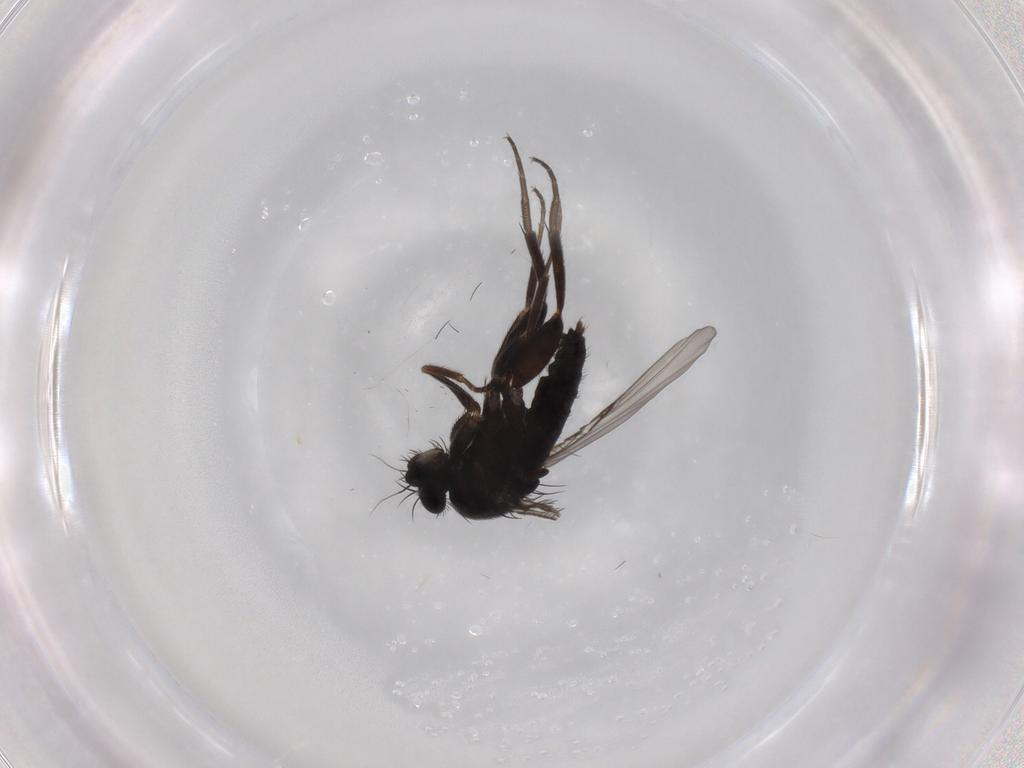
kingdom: Animalia
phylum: Arthropoda
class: Insecta
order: Diptera
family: Phoridae
